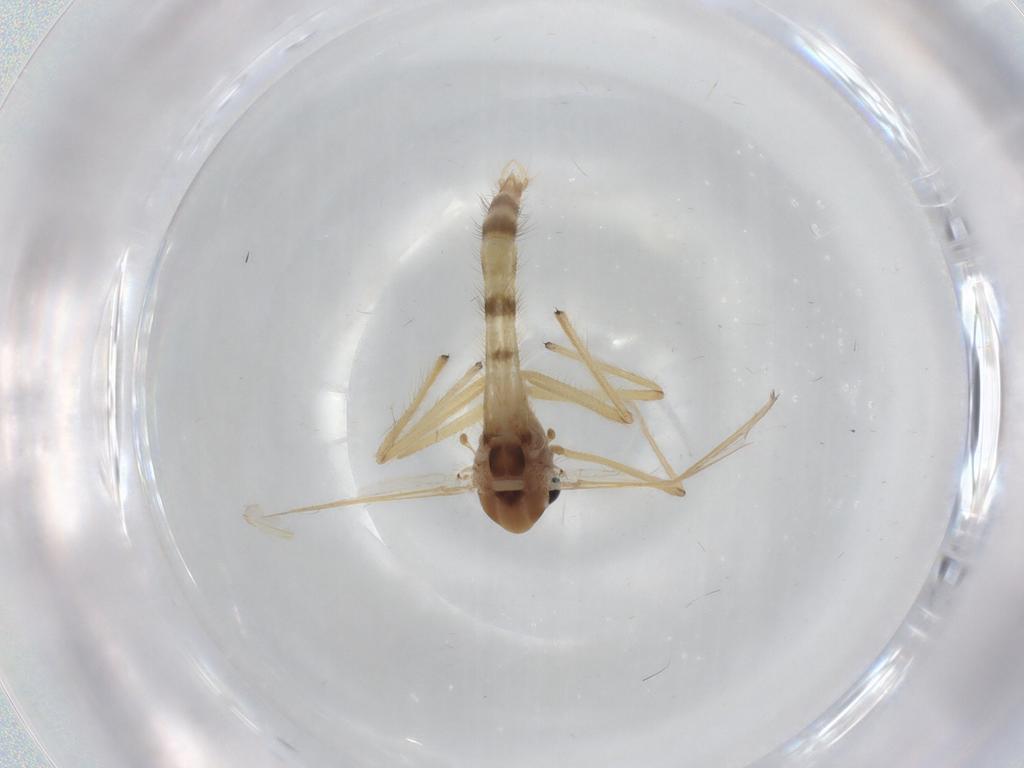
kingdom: Animalia
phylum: Arthropoda
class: Insecta
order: Diptera
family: Chironomidae
